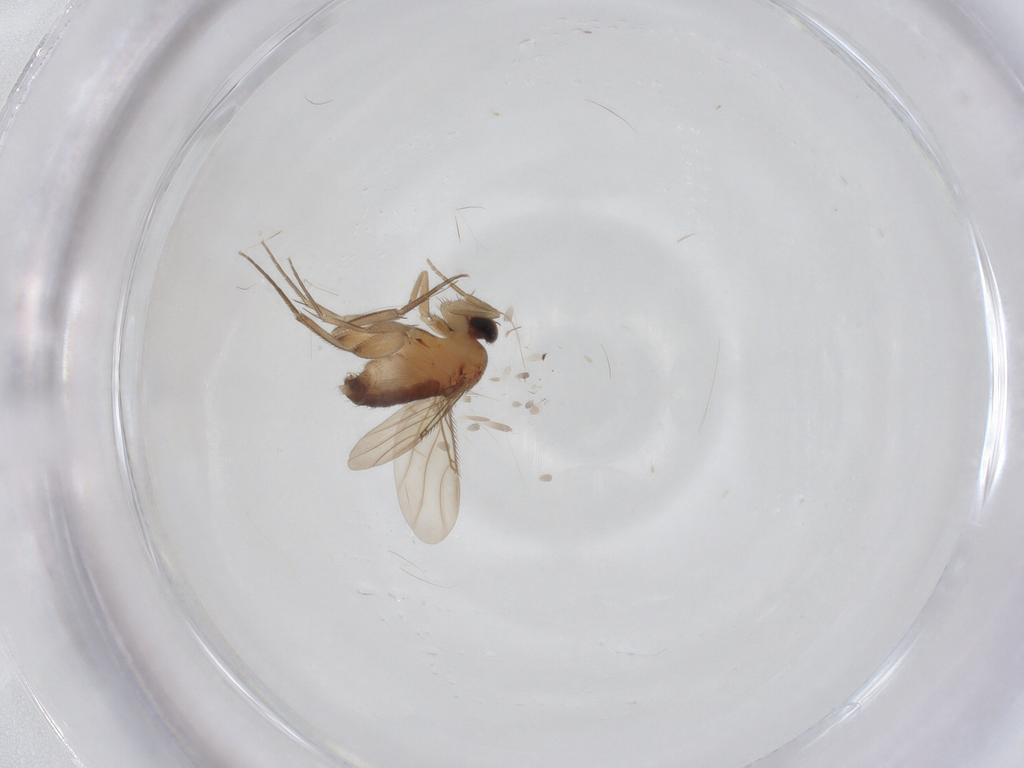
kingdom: Animalia
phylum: Arthropoda
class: Insecta
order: Diptera
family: Phoridae
